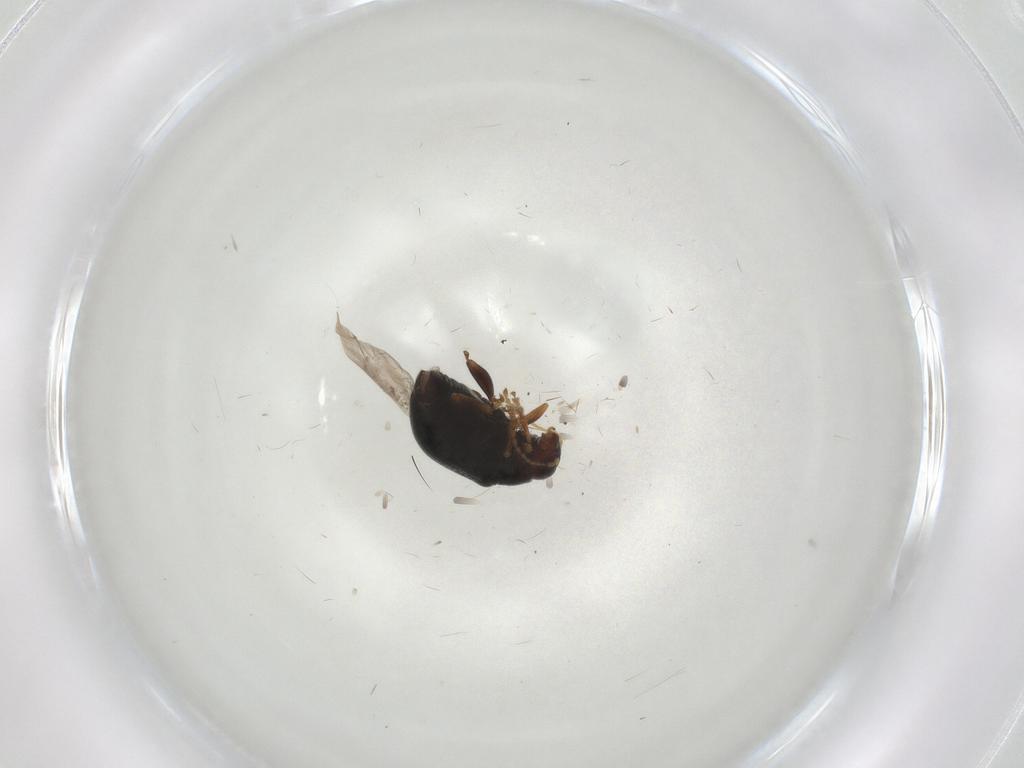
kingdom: Animalia
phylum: Arthropoda
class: Insecta
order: Coleoptera
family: Chrysomelidae
